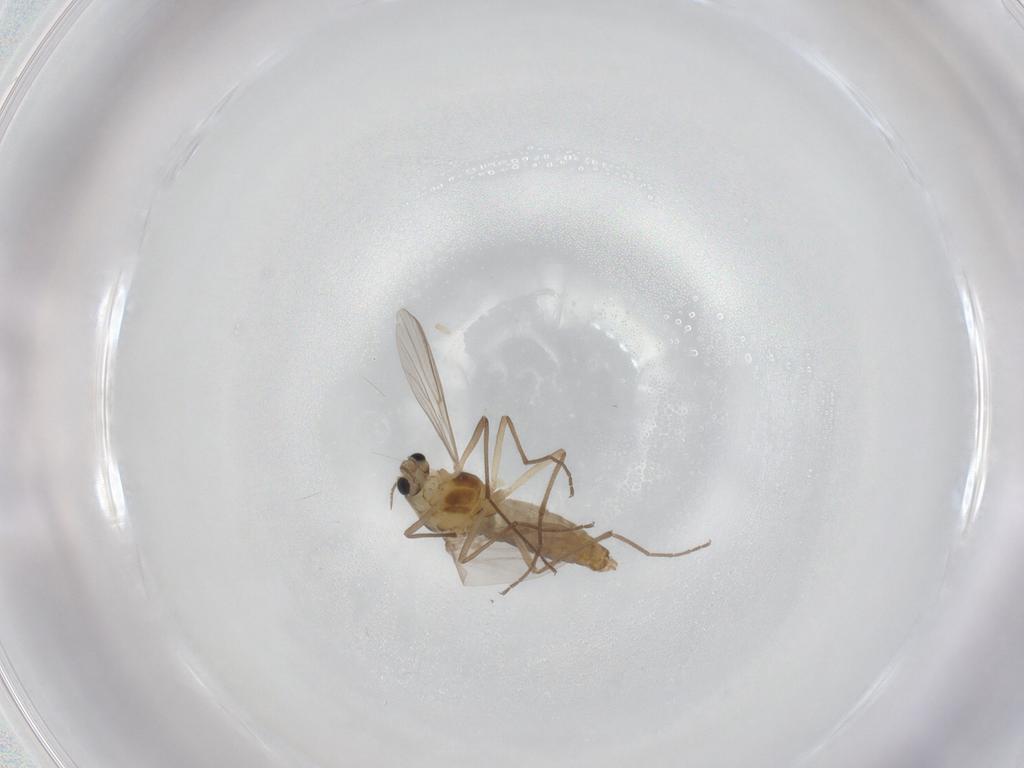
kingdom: Animalia
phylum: Arthropoda
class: Insecta
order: Diptera
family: Chironomidae
